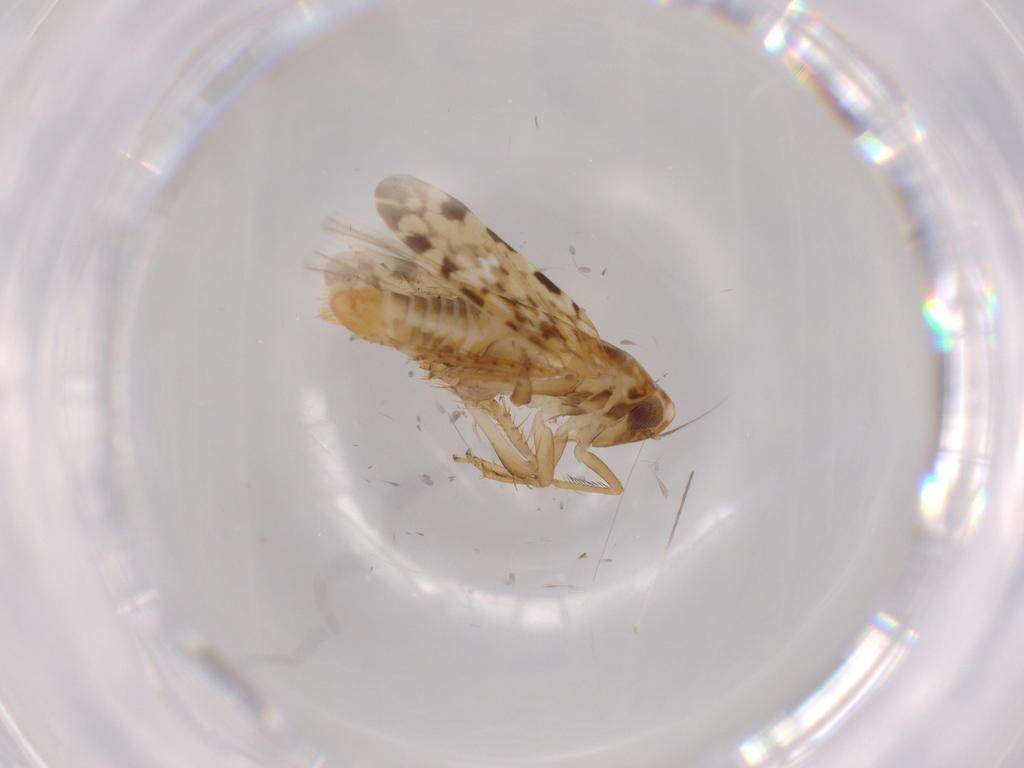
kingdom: Animalia
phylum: Arthropoda
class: Insecta
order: Hemiptera
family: Cicadellidae
